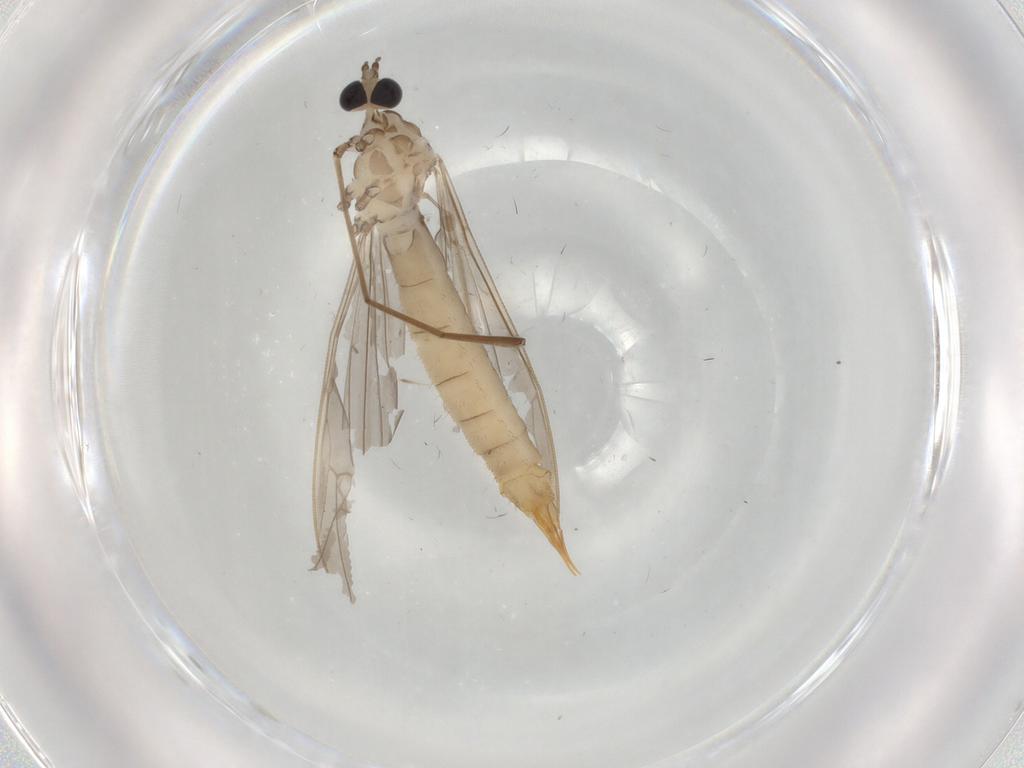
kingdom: Animalia
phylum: Arthropoda
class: Insecta
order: Diptera
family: Limoniidae
